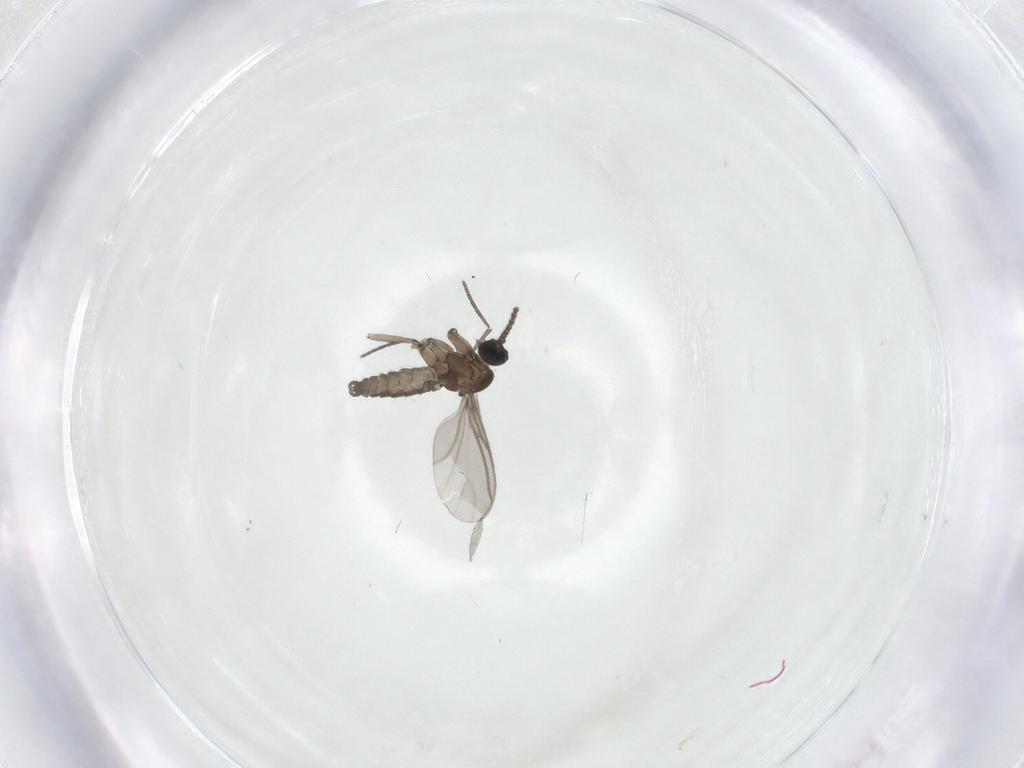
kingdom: Animalia
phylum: Arthropoda
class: Insecta
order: Diptera
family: Sciaridae
